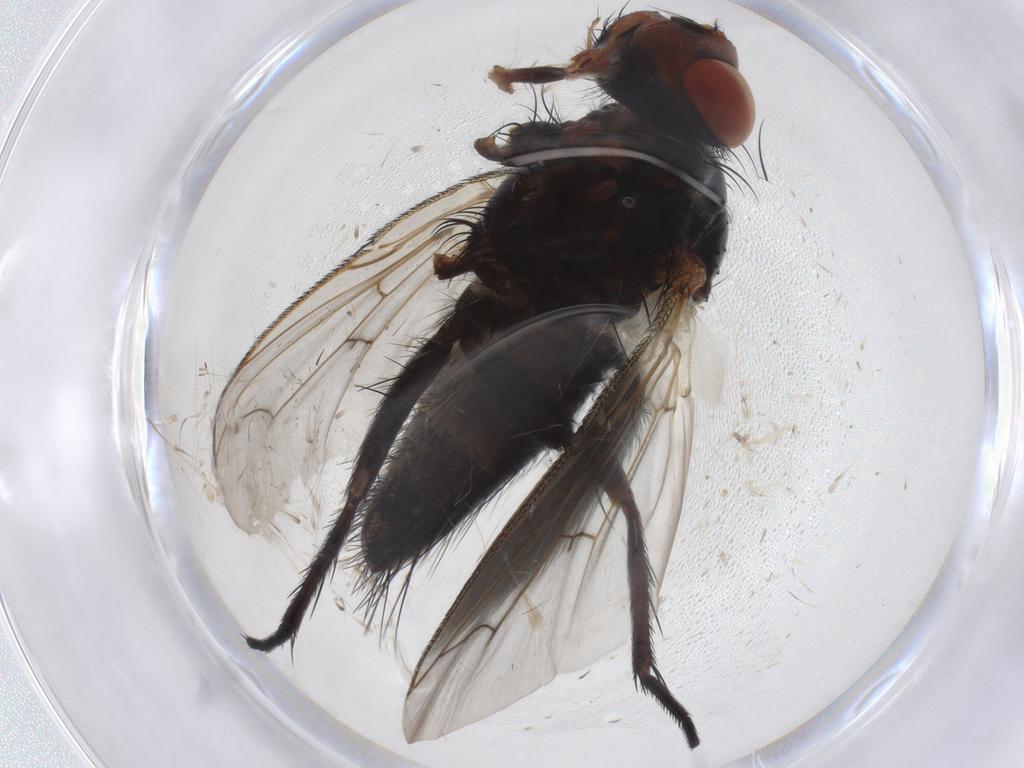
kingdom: Animalia
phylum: Arthropoda
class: Insecta
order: Diptera
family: Tachinidae
